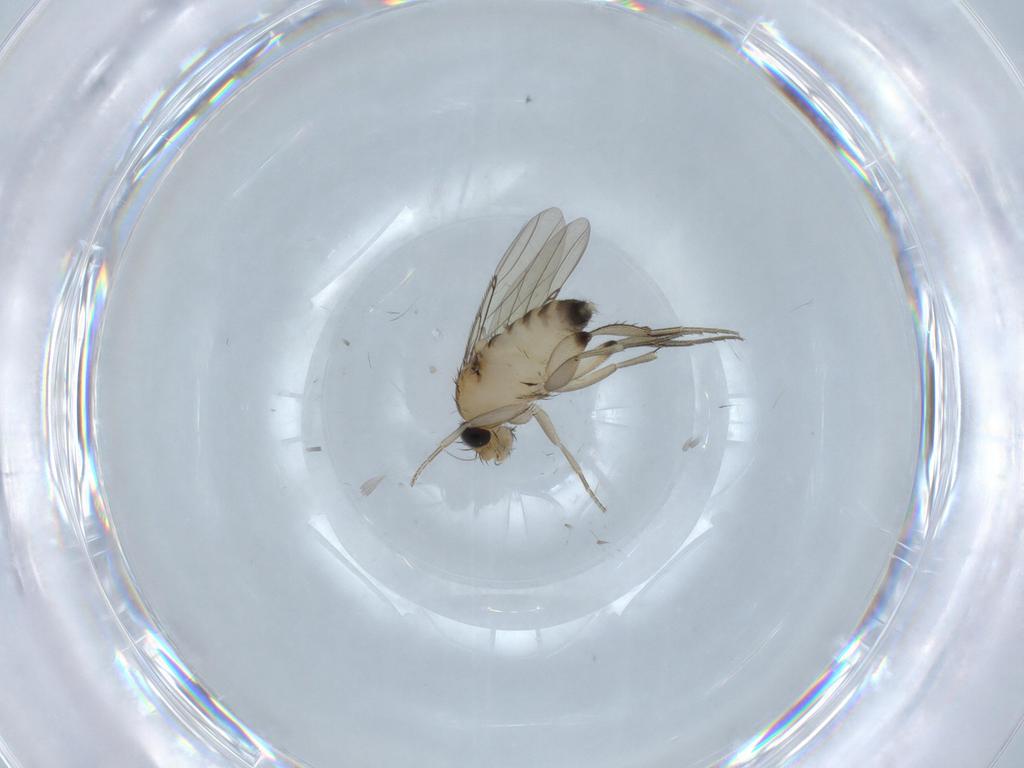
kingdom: Animalia
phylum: Arthropoda
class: Insecta
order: Diptera
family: Phoridae
